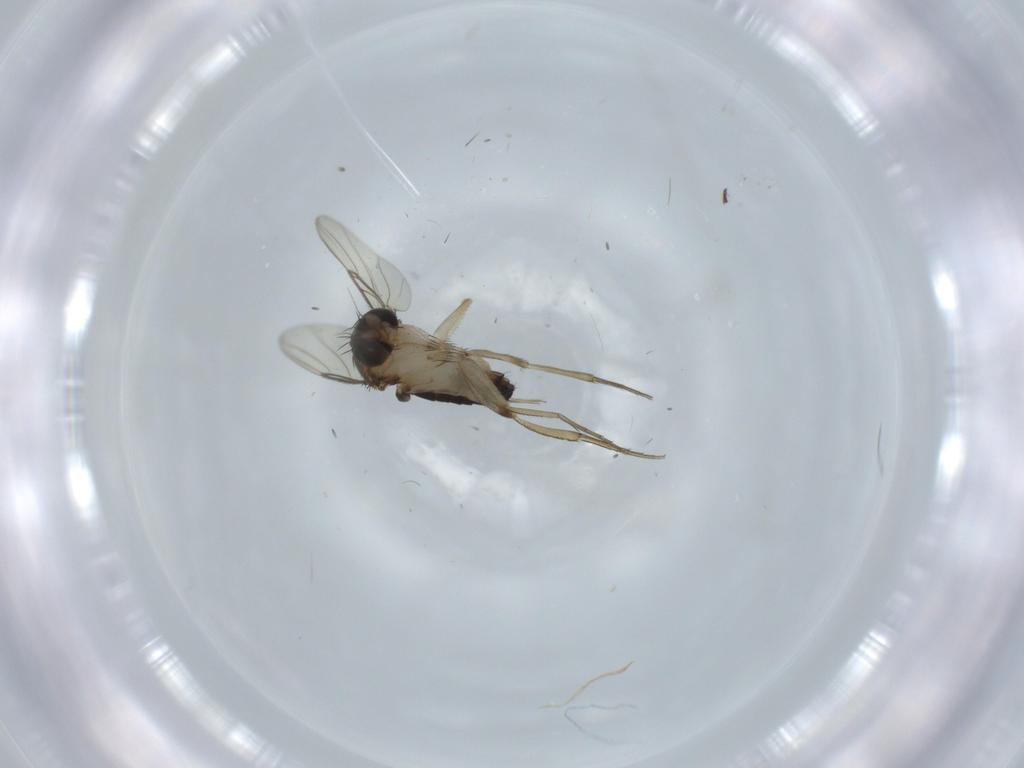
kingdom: Animalia
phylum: Arthropoda
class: Insecta
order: Diptera
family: Phoridae
